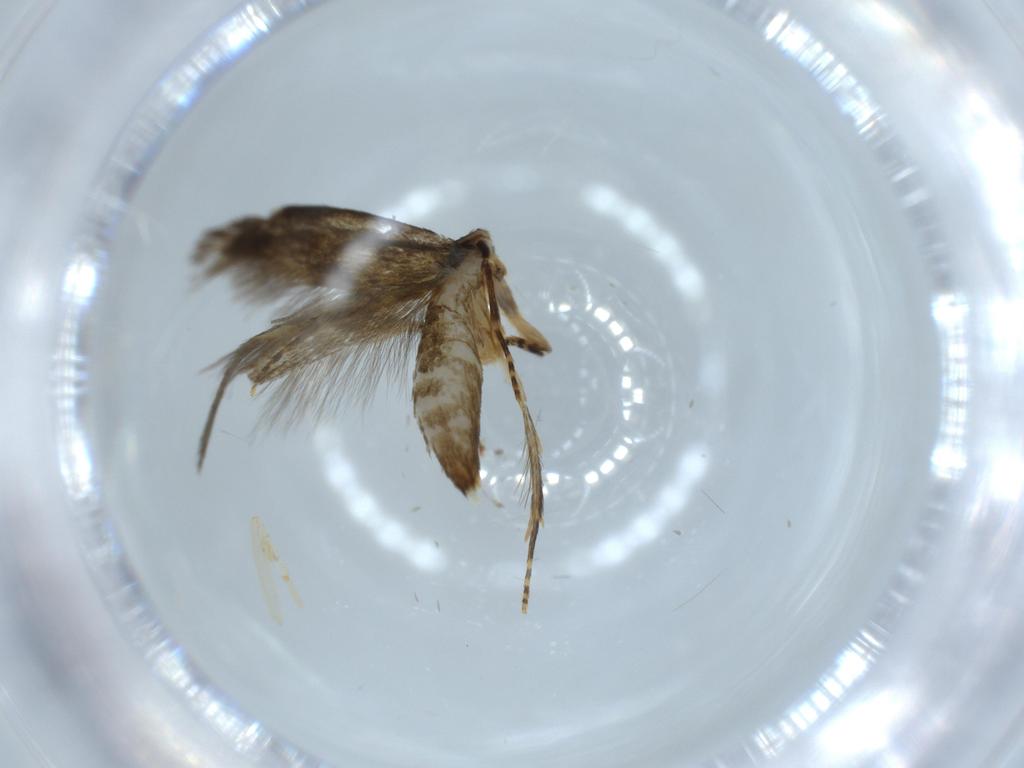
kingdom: Animalia
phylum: Arthropoda
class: Insecta
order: Lepidoptera
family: Tineidae
